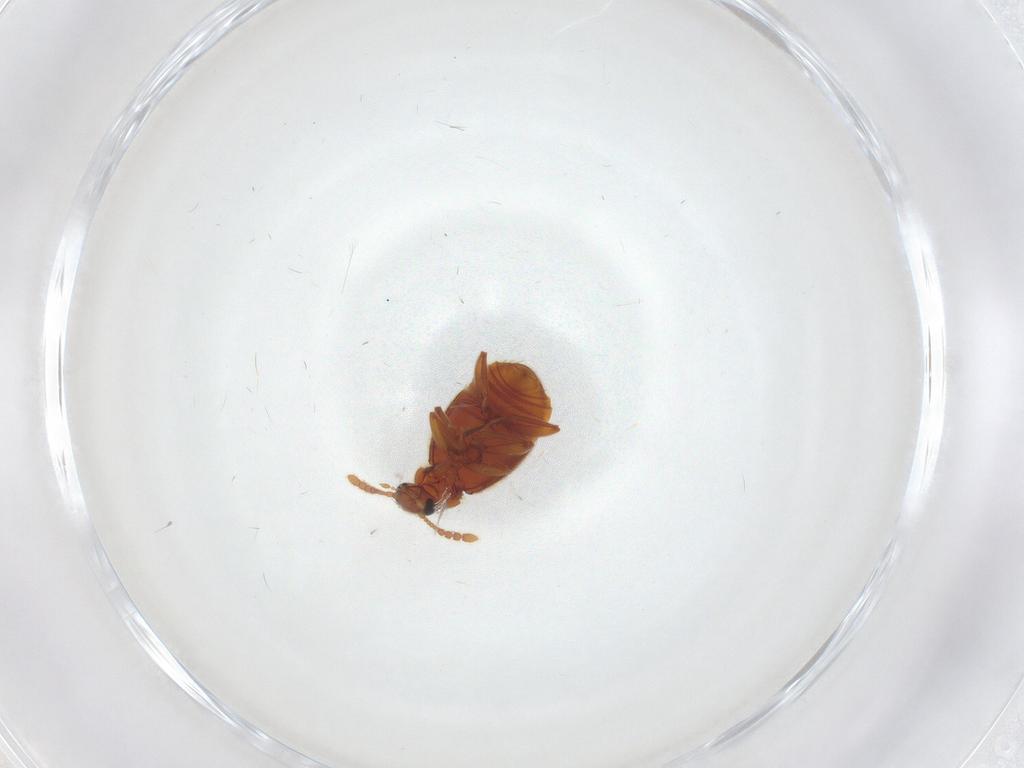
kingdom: Animalia
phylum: Arthropoda
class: Insecta
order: Coleoptera
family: Staphylinidae
